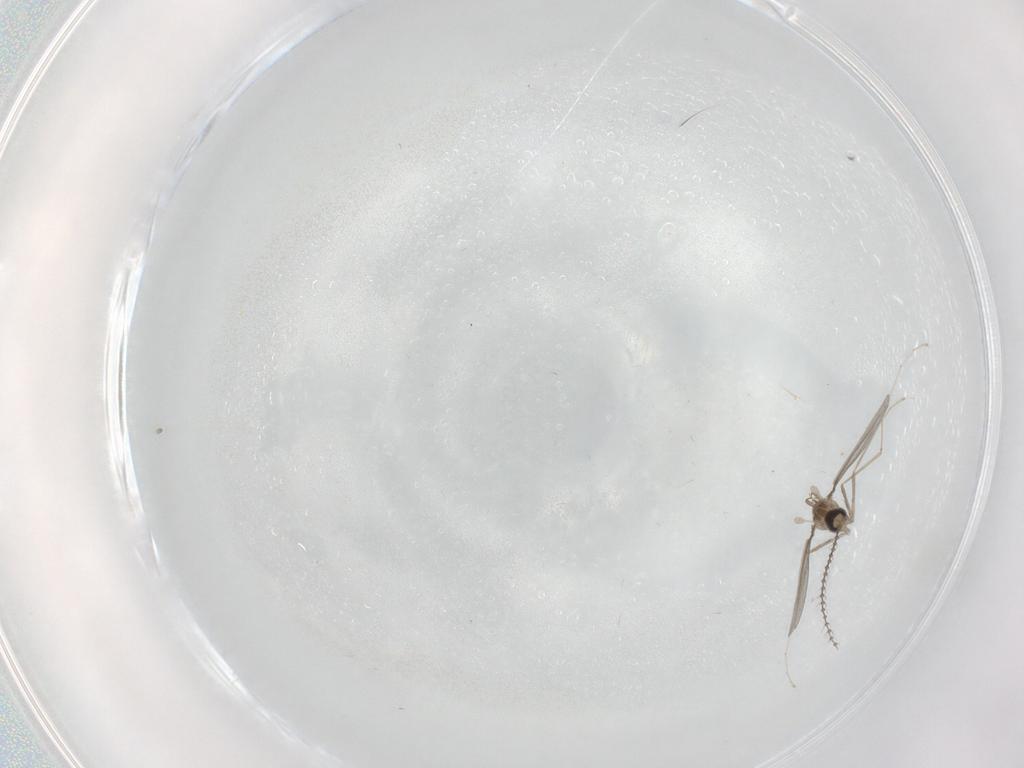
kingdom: Animalia
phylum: Arthropoda
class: Insecta
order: Diptera
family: Cecidomyiidae
